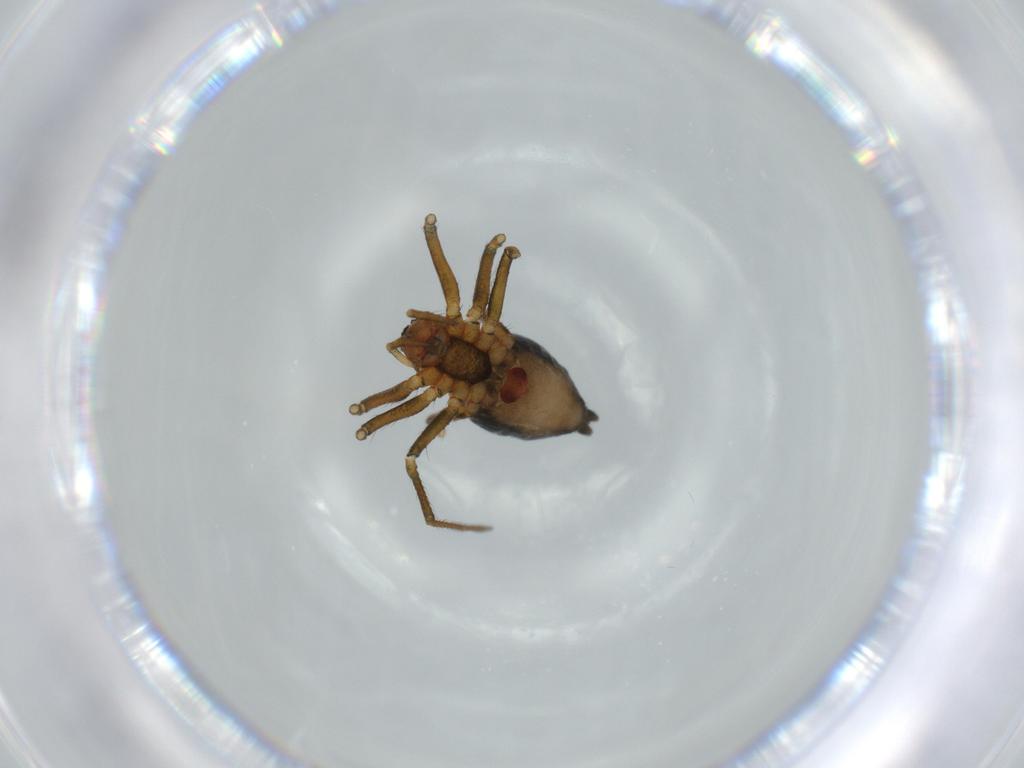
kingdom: Animalia
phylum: Arthropoda
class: Arachnida
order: Araneae
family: Linyphiidae
